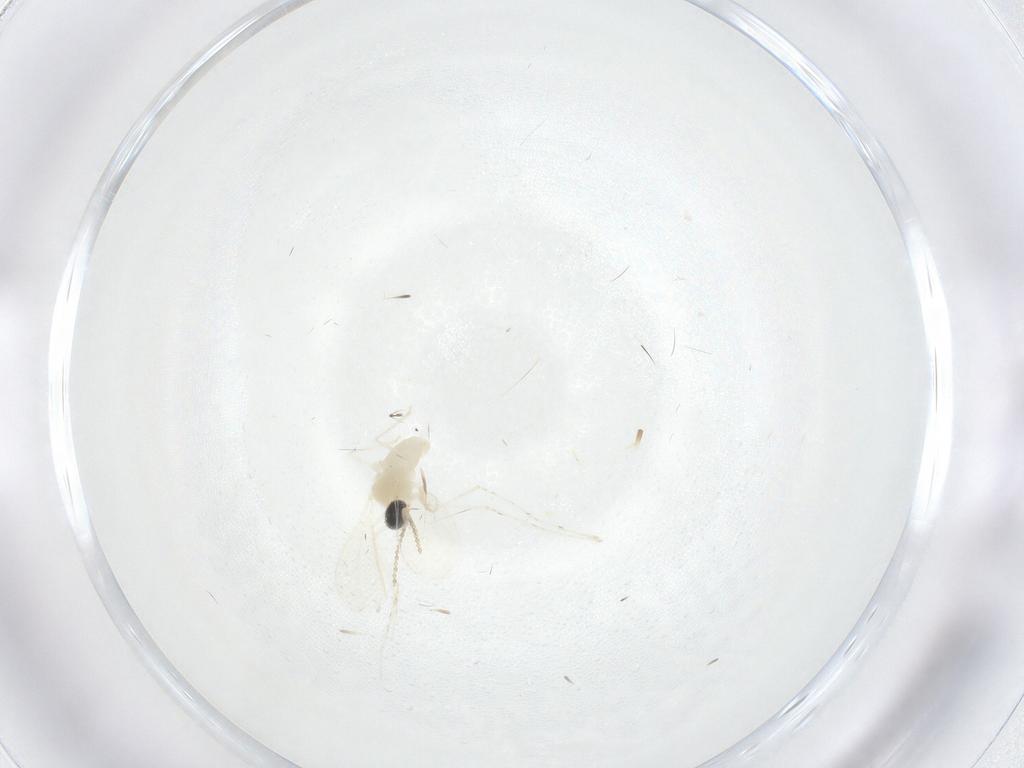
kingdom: Animalia
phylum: Arthropoda
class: Insecta
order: Diptera
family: Cecidomyiidae
